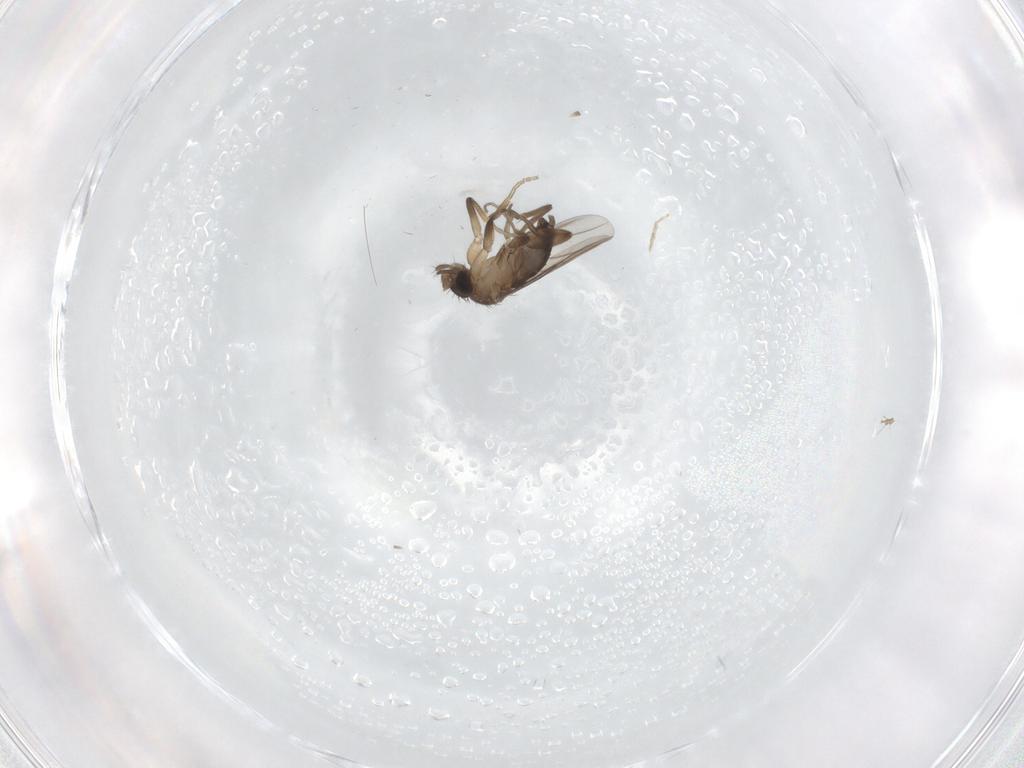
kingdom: Animalia
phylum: Arthropoda
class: Insecta
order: Diptera
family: Phoridae
